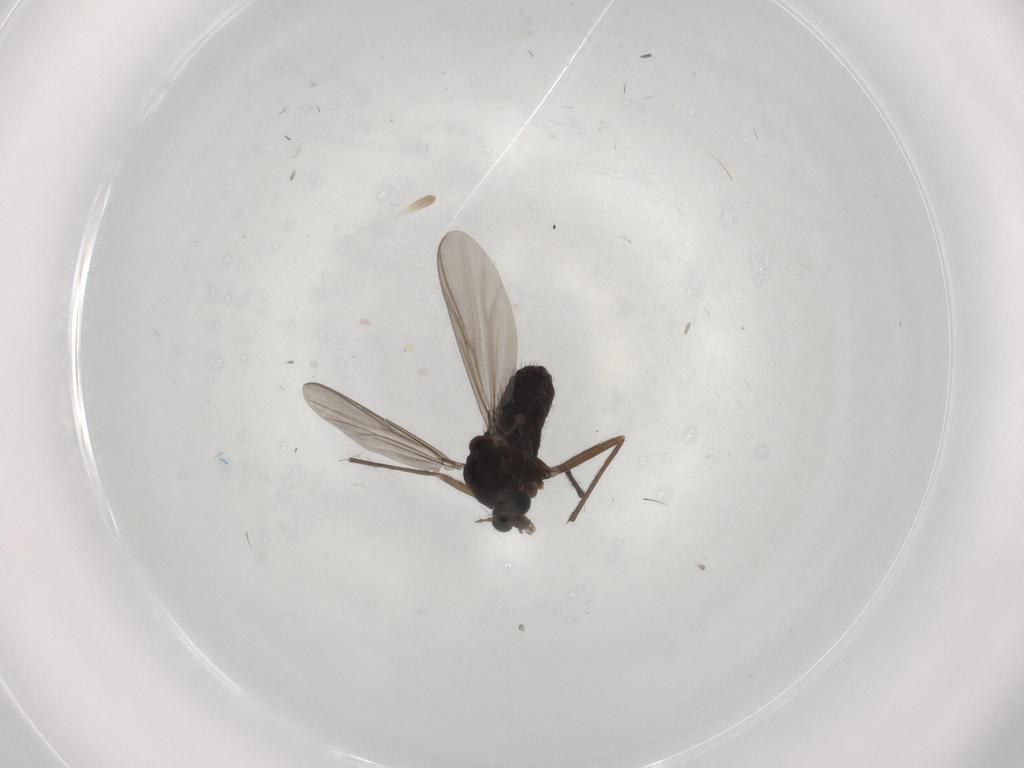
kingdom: Animalia
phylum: Arthropoda
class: Insecta
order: Diptera
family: Chironomidae
